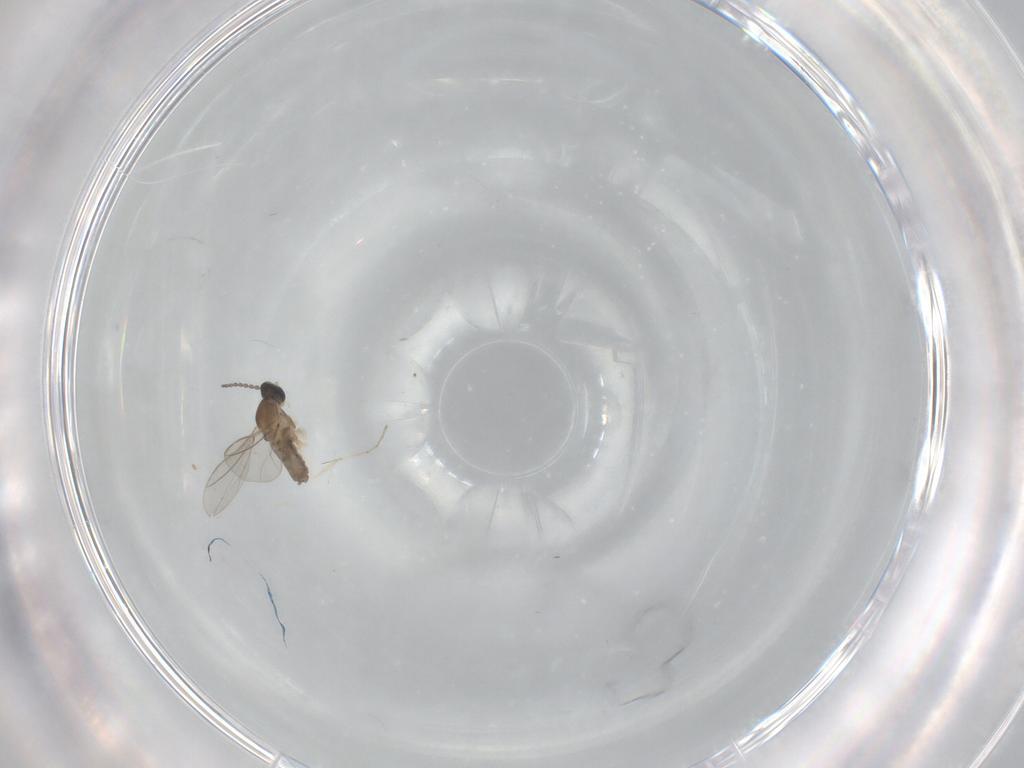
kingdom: Animalia
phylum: Arthropoda
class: Insecta
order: Diptera
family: Cecidomyiidae
